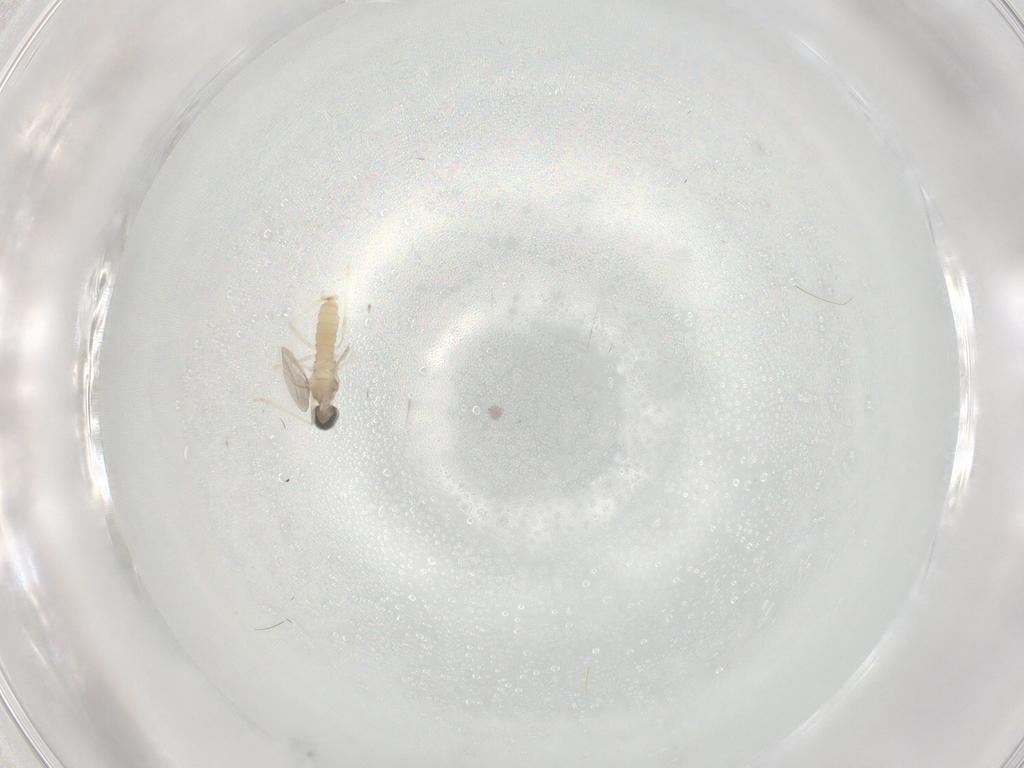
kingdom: Animalia
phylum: Arthropoda
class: Insecta
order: Diptera
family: Cecidomyiidae
